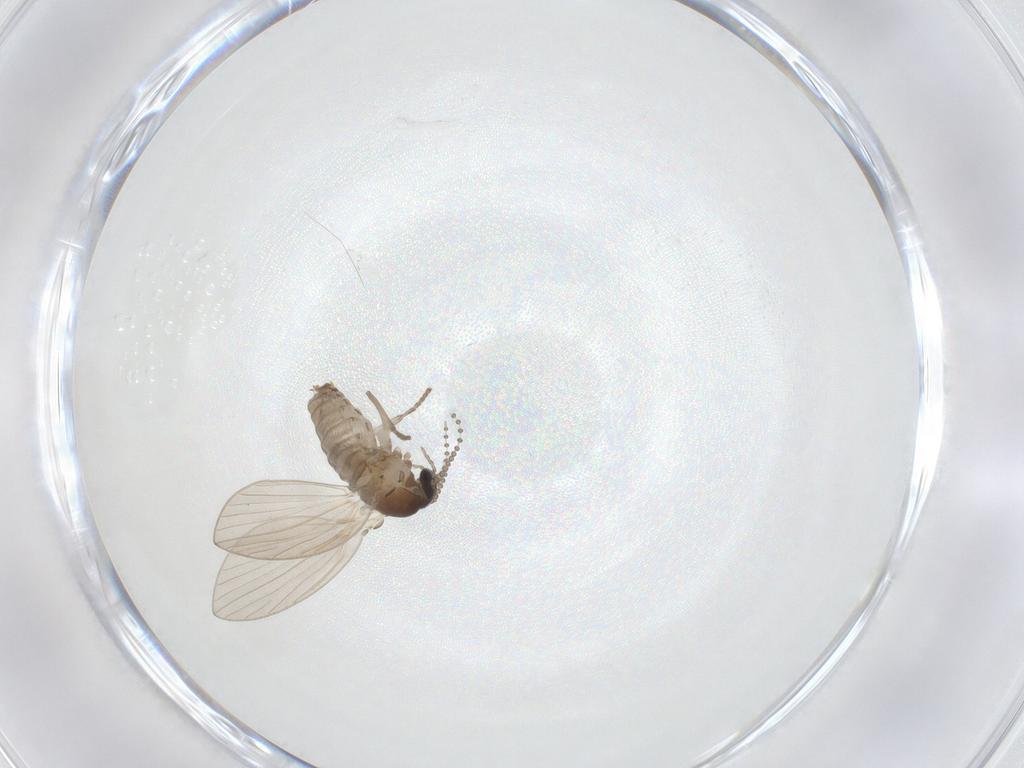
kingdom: Animalia
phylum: Arthropoda
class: Insecta
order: Diptera
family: Psychodidae
